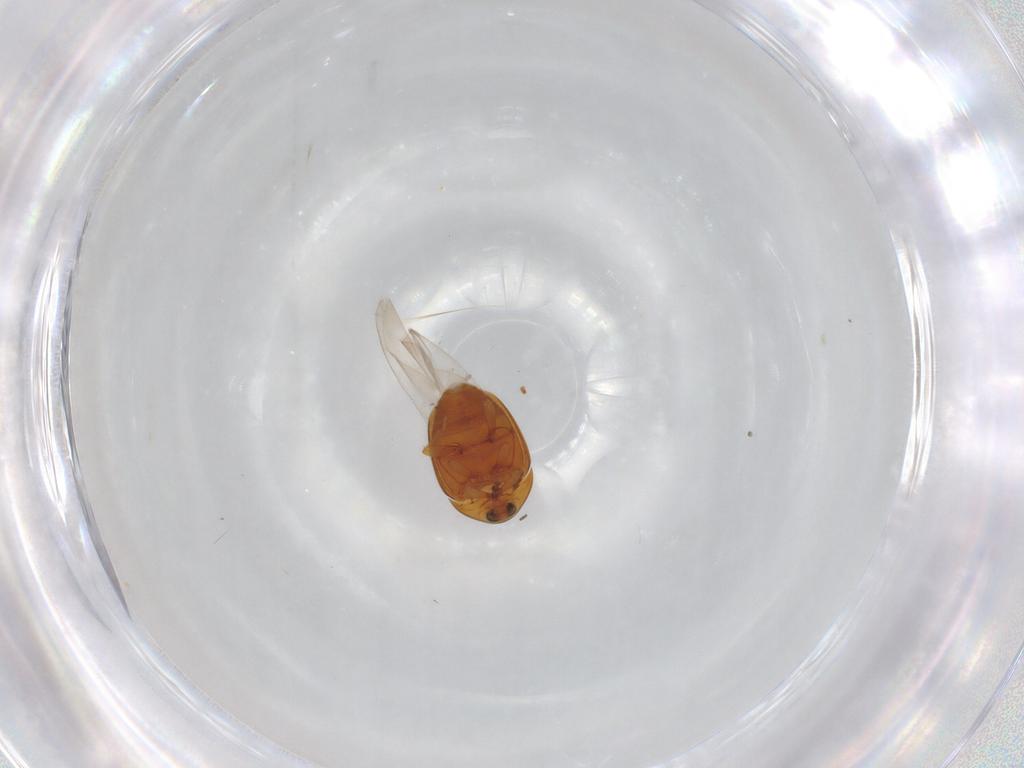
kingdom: Animalia
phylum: Arthropoda
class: Insecta
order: Coleoptera
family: Corylophidae
